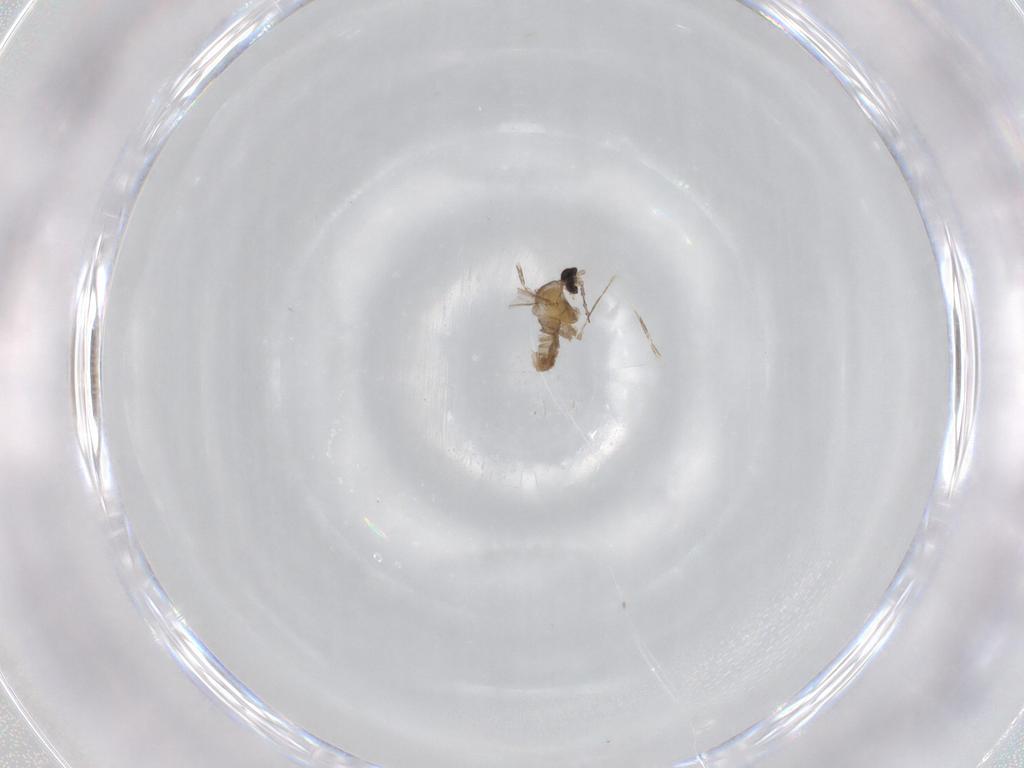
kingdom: Animalia
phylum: Arthropoda
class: Insecta
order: Diptera
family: Cecidomyiidae
